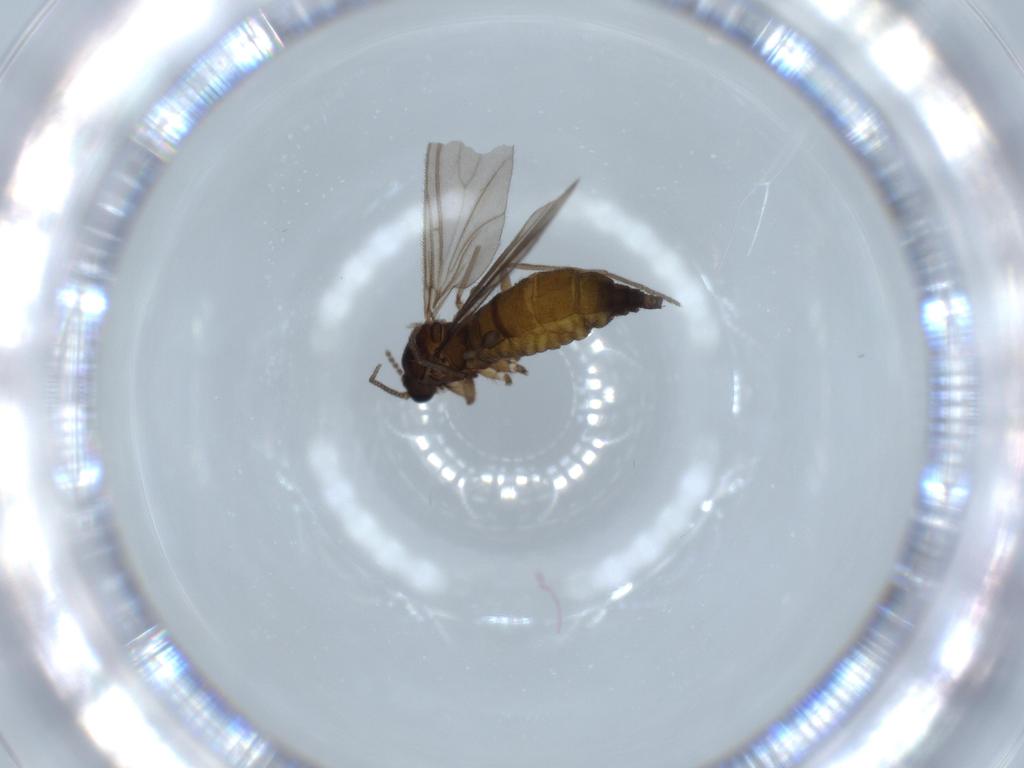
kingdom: Animalia
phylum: Arthropoda
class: Insecta
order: Diptera
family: Sciaridae
